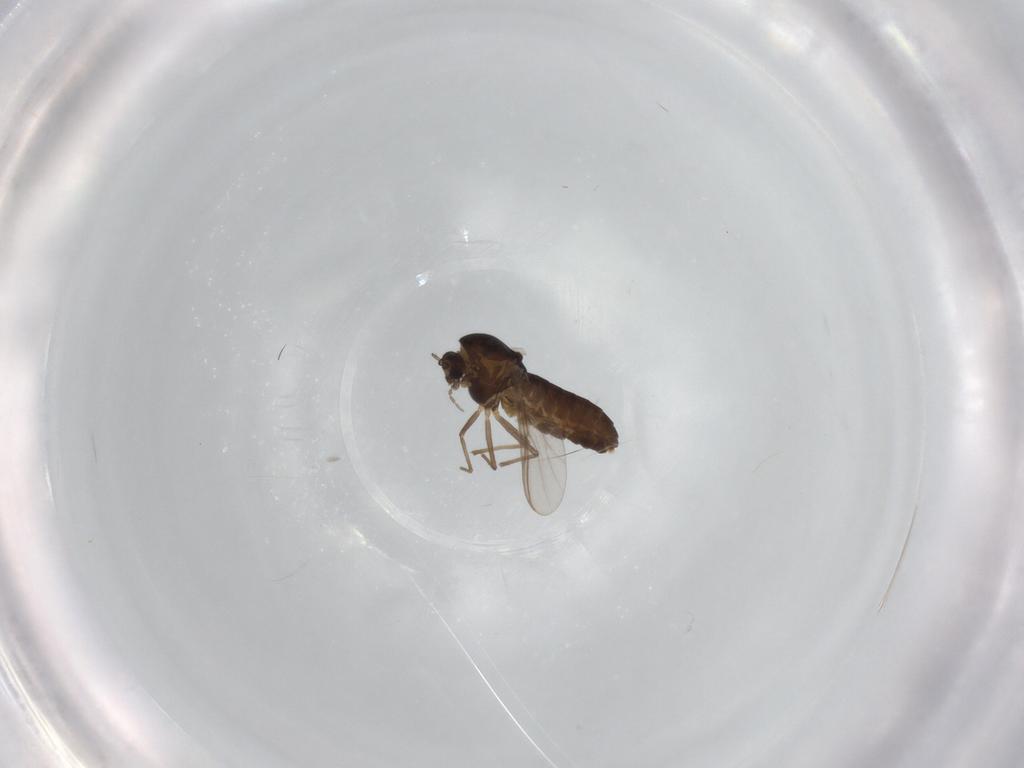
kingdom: Animalia
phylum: Arthropoda
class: Insecta
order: Diptera
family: Chironomidae
